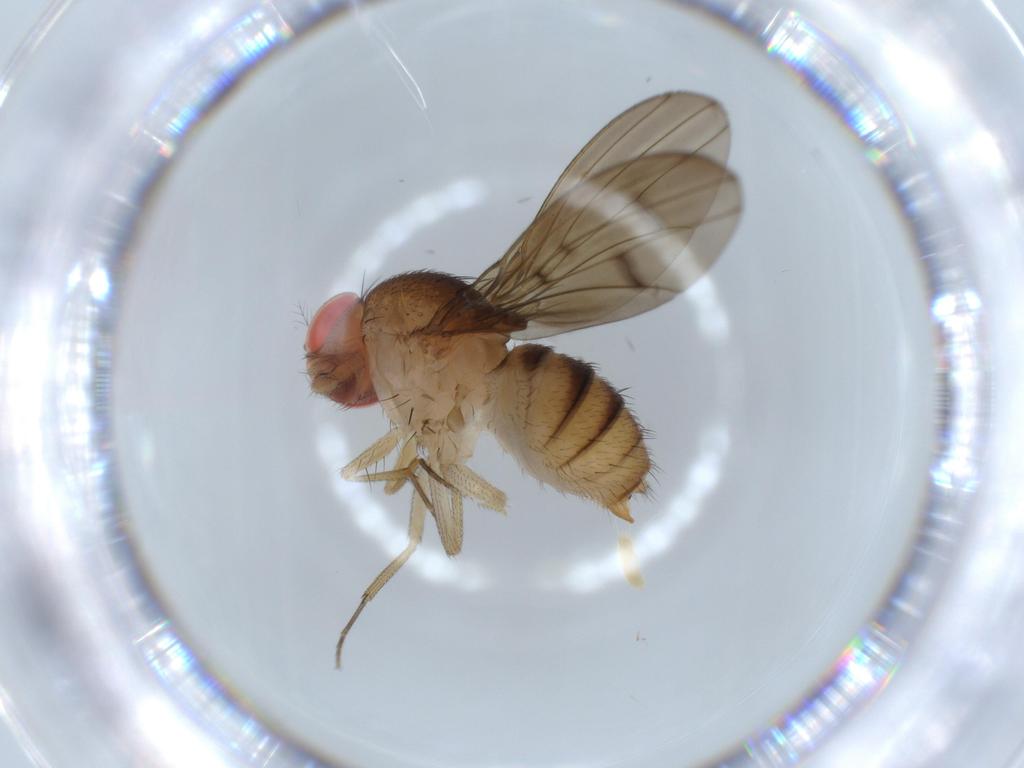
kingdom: Animalia
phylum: Arthropoda
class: Insecta
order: Diptera
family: Drosophilidae
